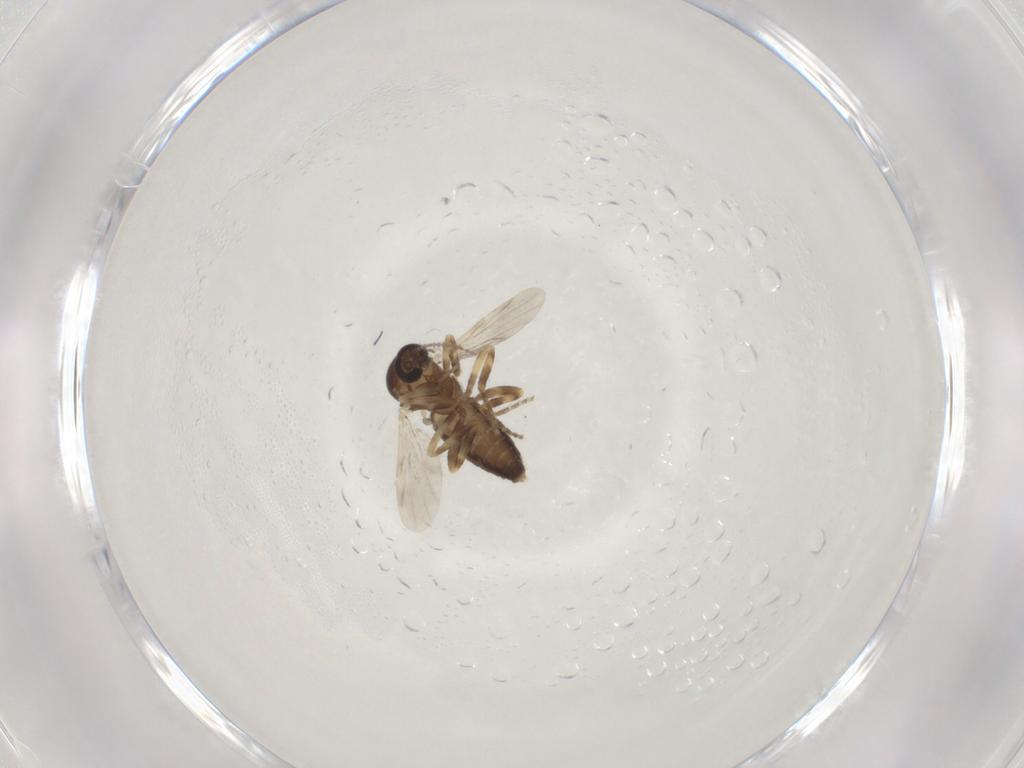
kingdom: Animalia
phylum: Arthropoda
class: Insecta
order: Diptera
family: Ceratopogonidae
